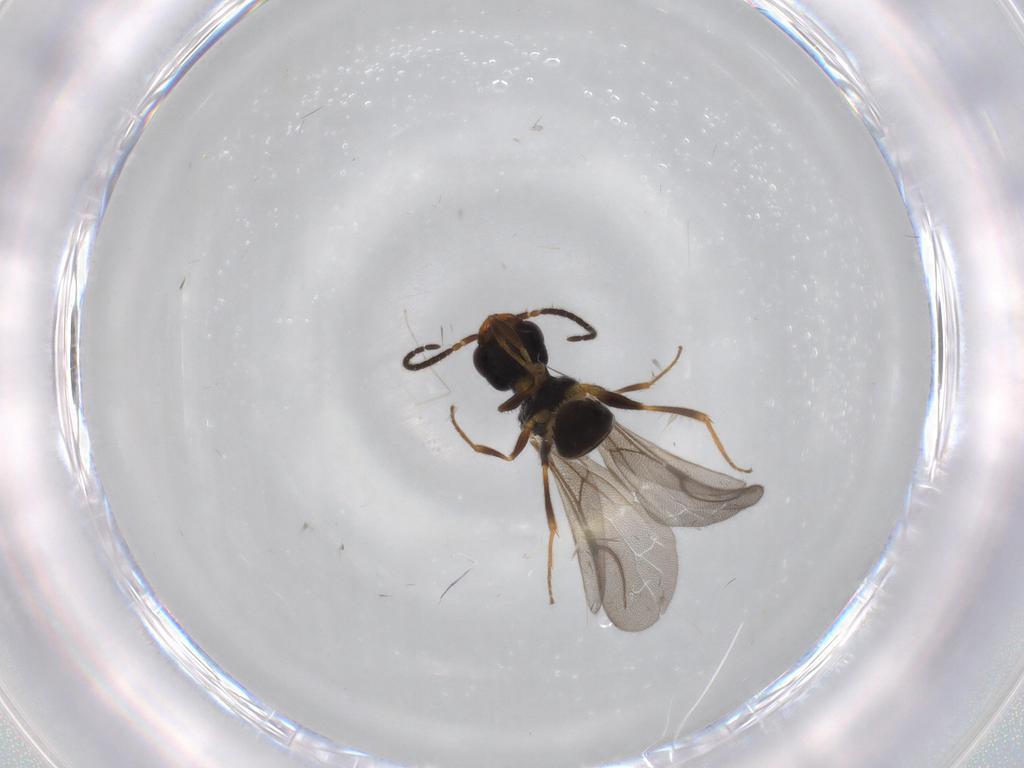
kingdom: Animalia
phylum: Arthropoda
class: Insecta
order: Hymenoptera
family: Bethylidae
